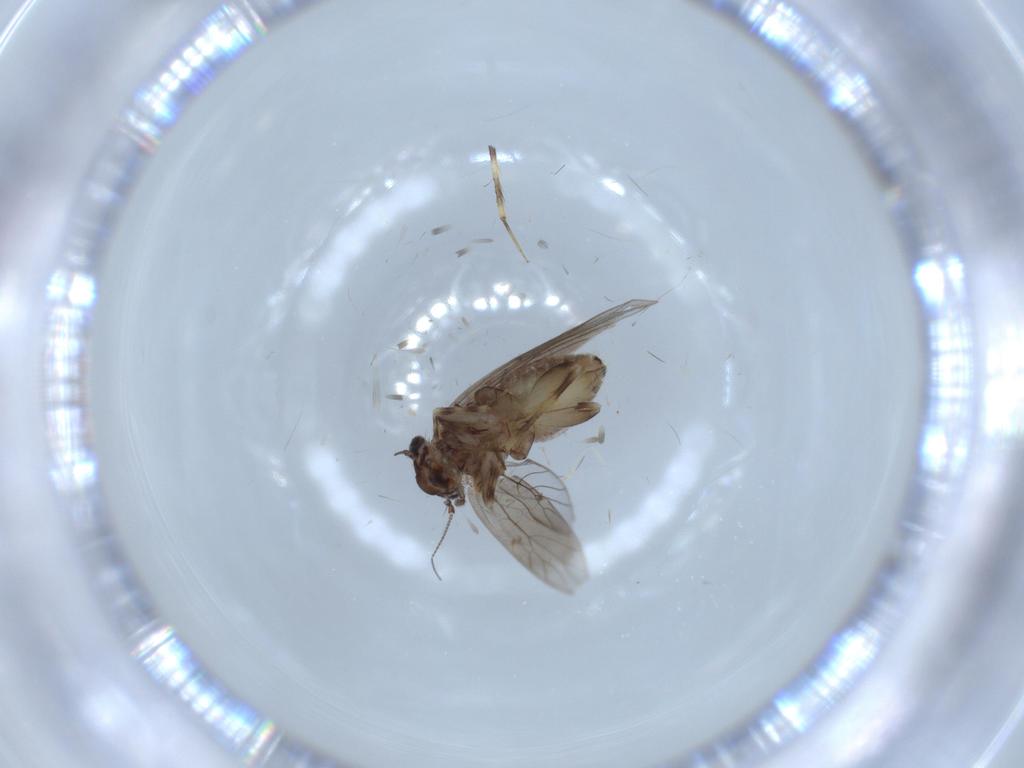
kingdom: Animalia
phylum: Arthropoda
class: Insecta
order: Psocodea
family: Lepidopsocidae
